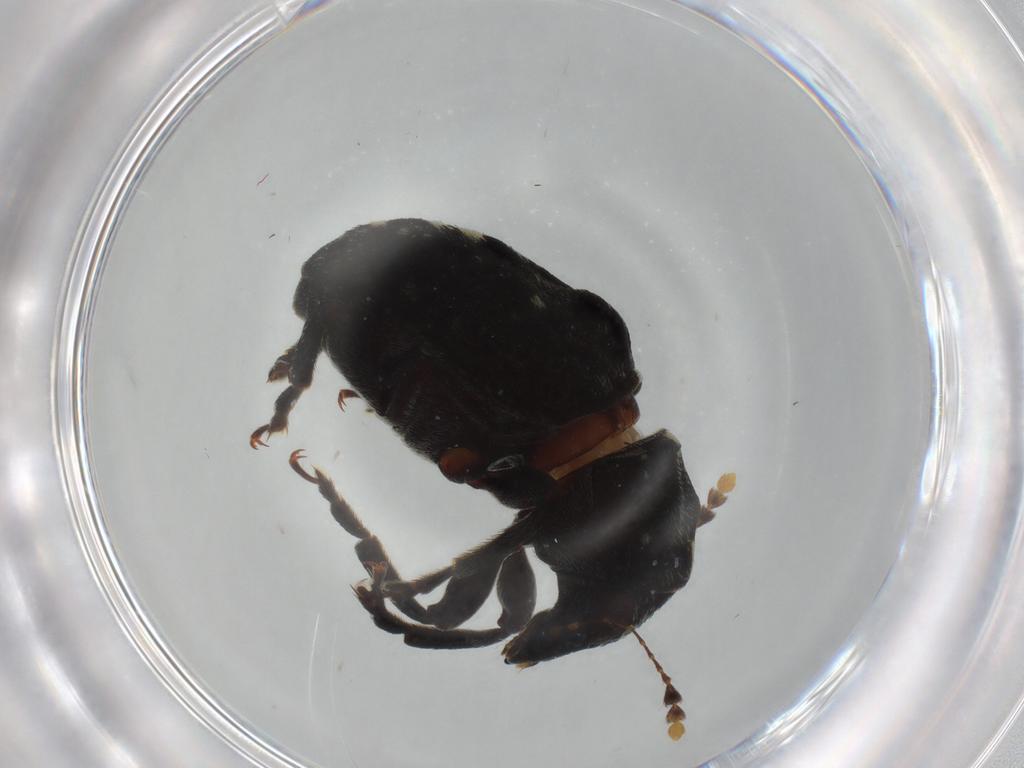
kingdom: Animalia
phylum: Arthropoda
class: Insecta
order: Coleoptera
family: Anthribidae
